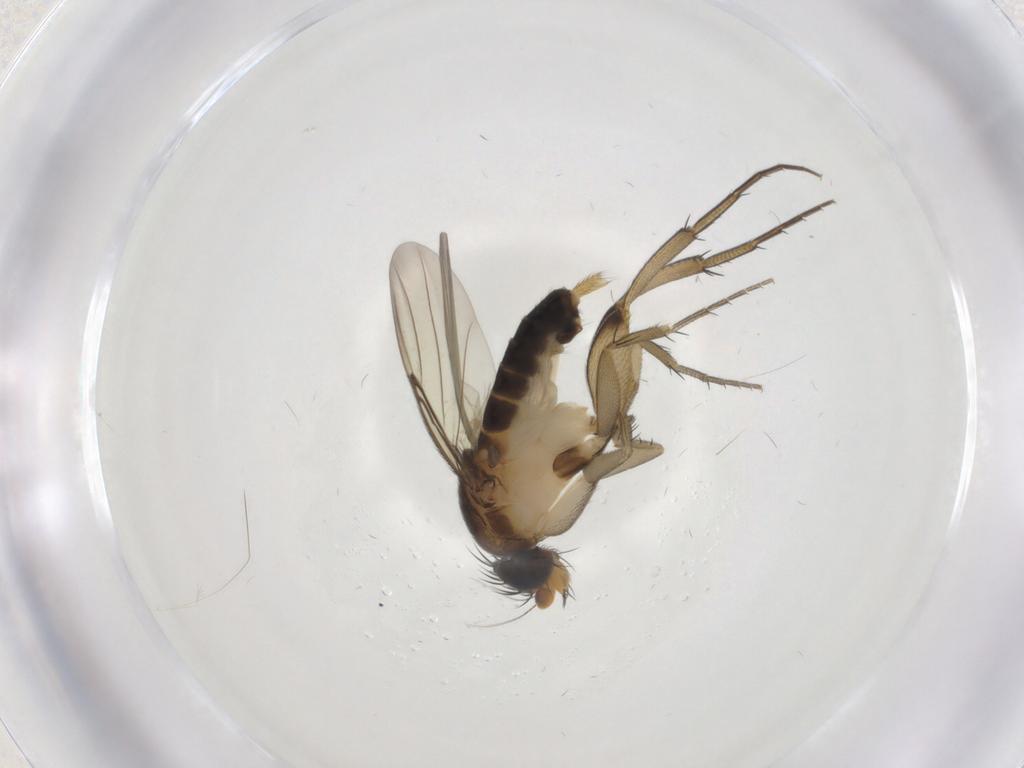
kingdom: Animalia
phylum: Arthropoda
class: Insecta
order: Diptera
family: Phoridae
